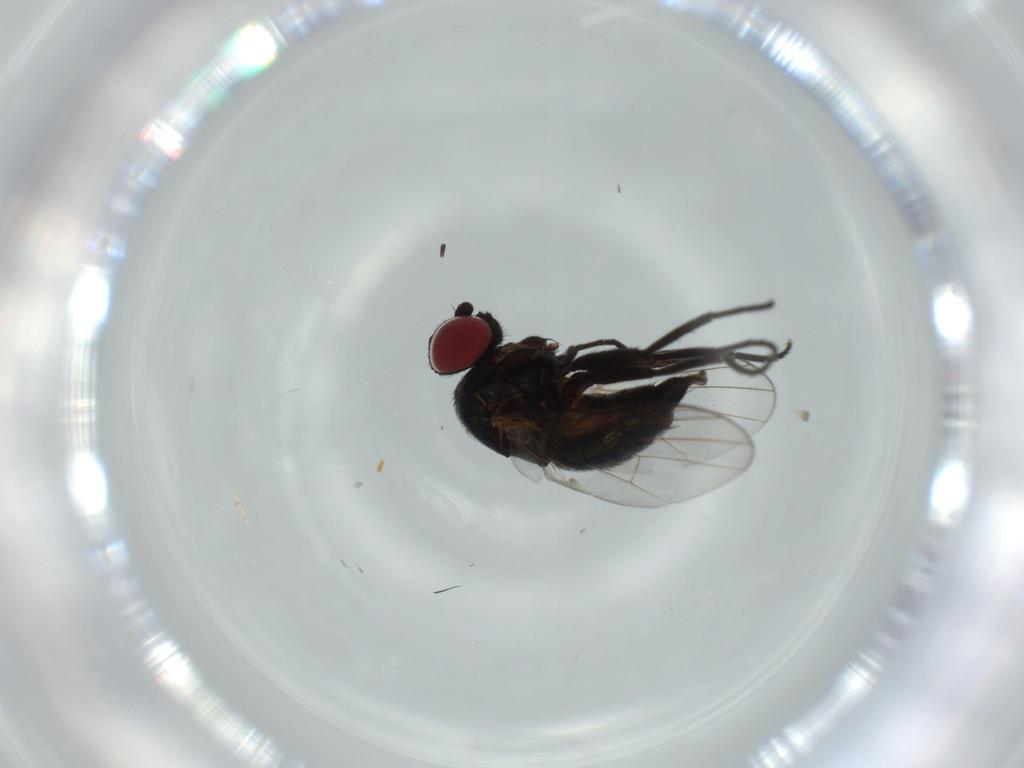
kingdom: Animalia
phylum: Arthropoda
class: Insecta
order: Diptera
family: Agromyzidae
